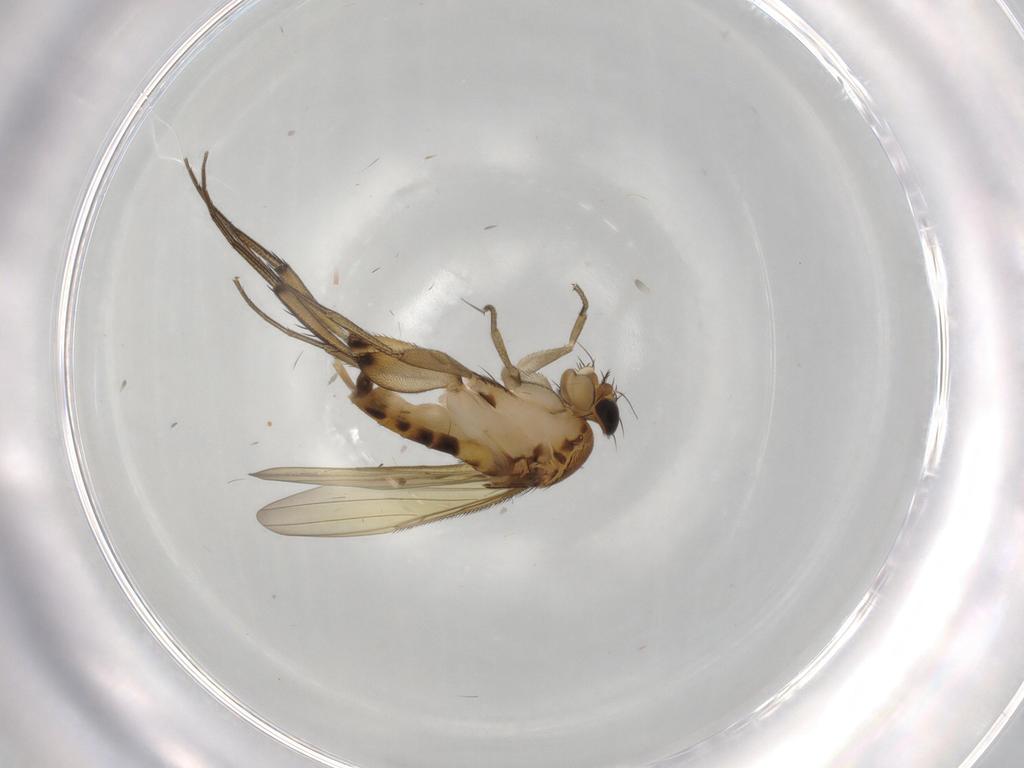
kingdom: Animalia
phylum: Arthropoda
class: Insecta
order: Diptera
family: Phoridae
